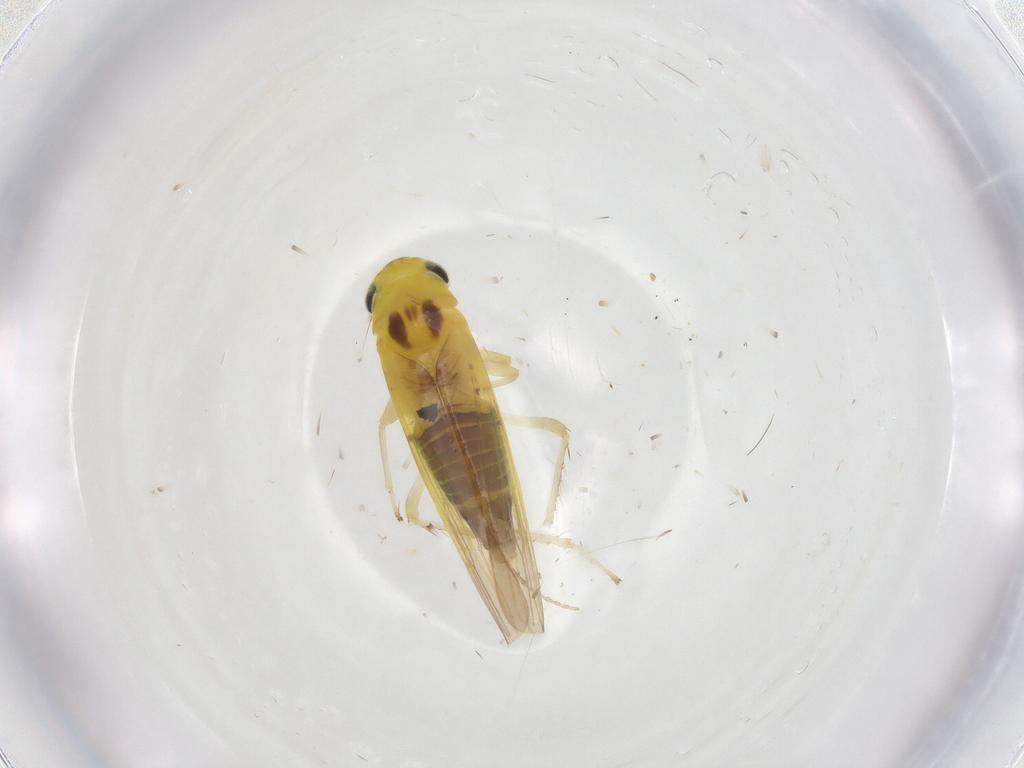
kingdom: Animalia
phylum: Arthropoda
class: Insecta
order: Hemiptera
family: Cicadellidae
